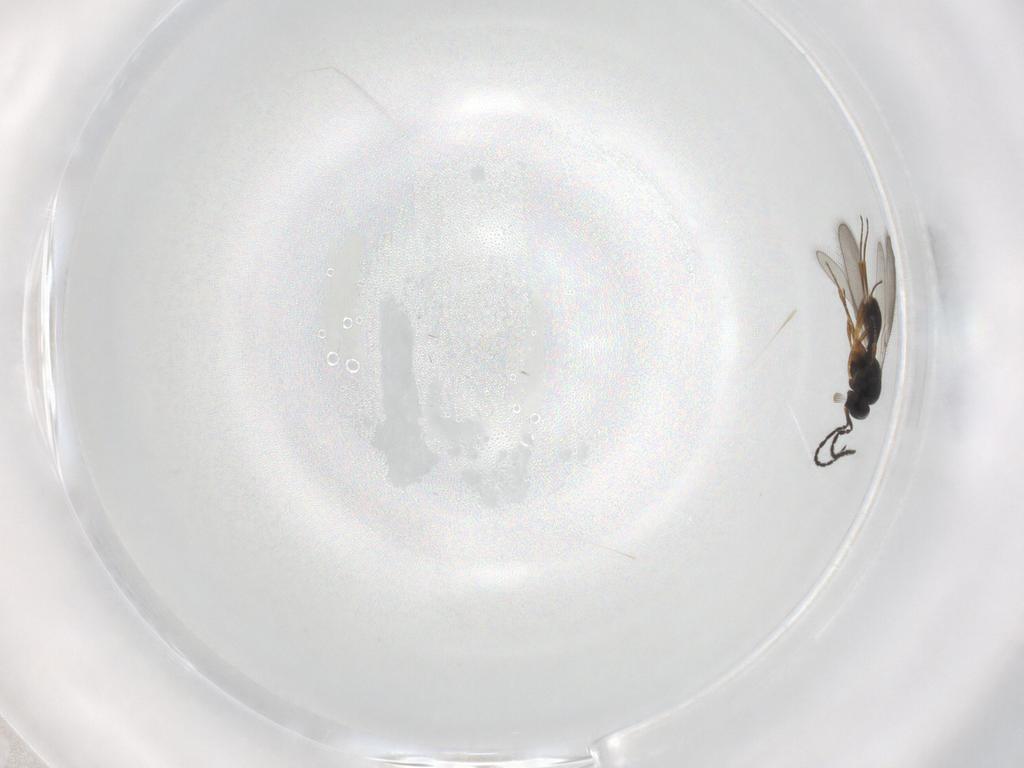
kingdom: Animalia
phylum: Arthropoda
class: Insecta
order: Hymenoptera
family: Scelionidae
